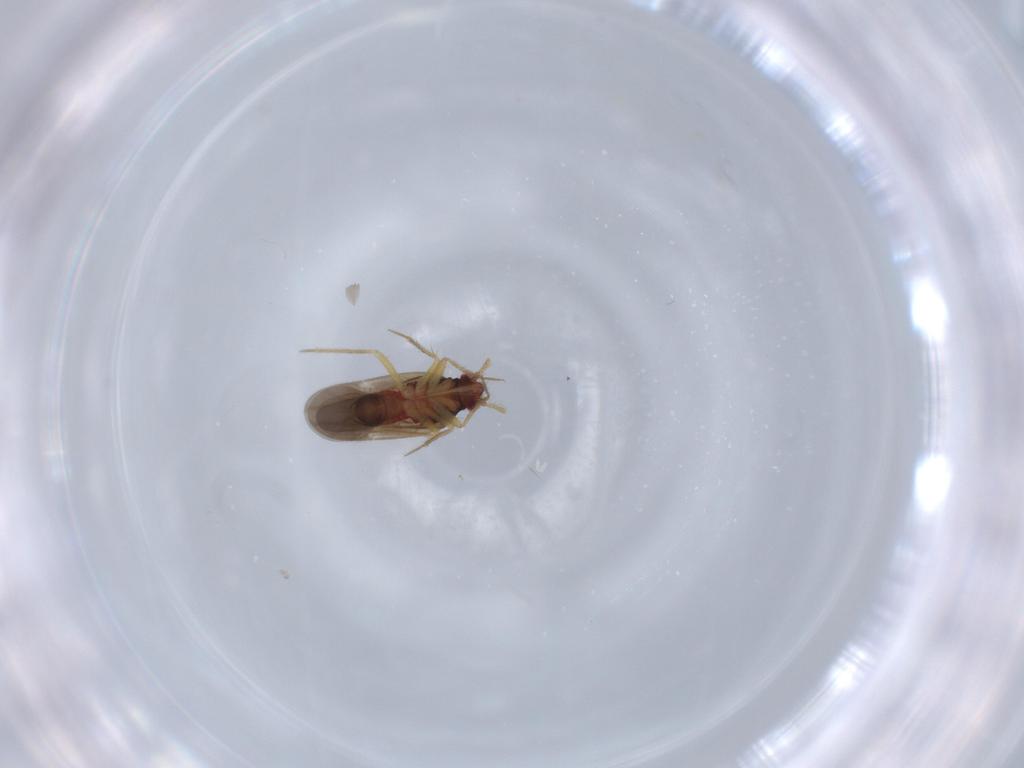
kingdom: Animalia
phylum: Arthropoda
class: Insecta
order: Hemiptera
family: Ceratocombidae
